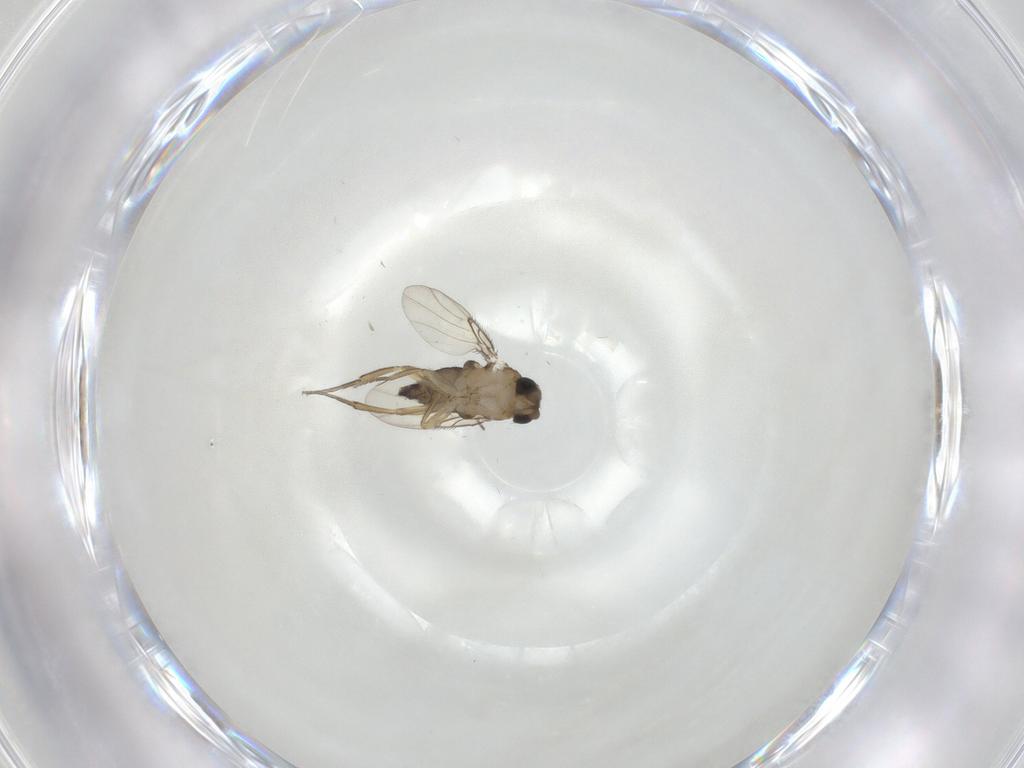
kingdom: Animalia
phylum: Arthropoda
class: Insecta
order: Diptera
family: Phoridae
